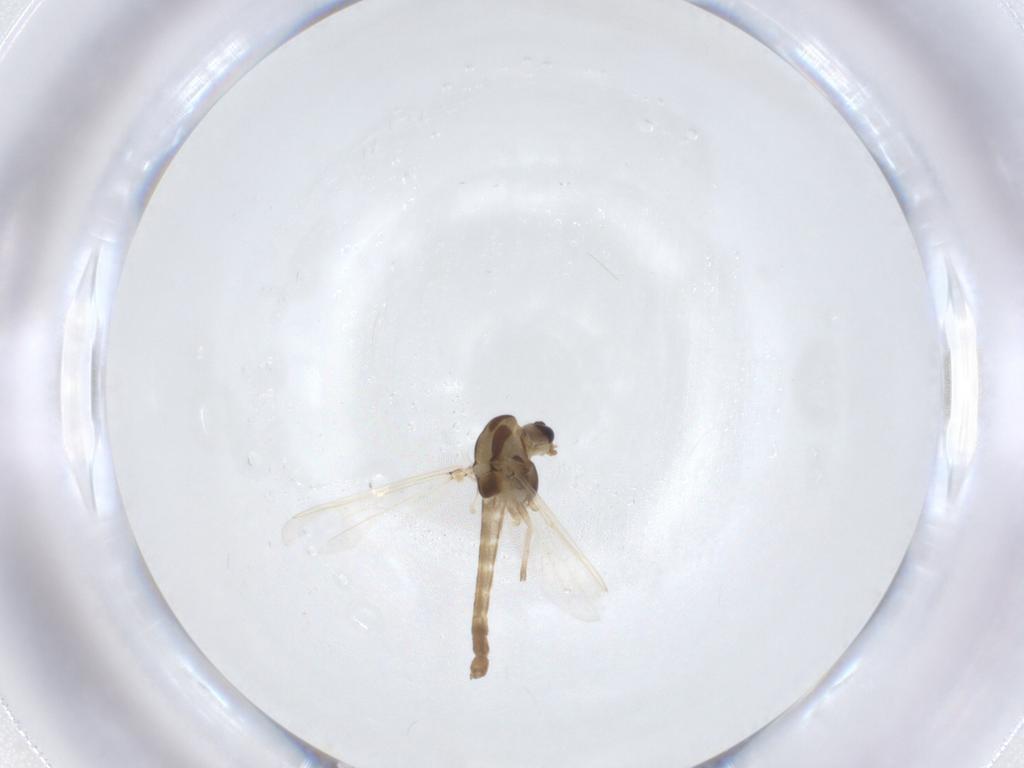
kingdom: Animalia
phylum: Arthropoda
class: Insecta
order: Diptera
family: Chironomidae
